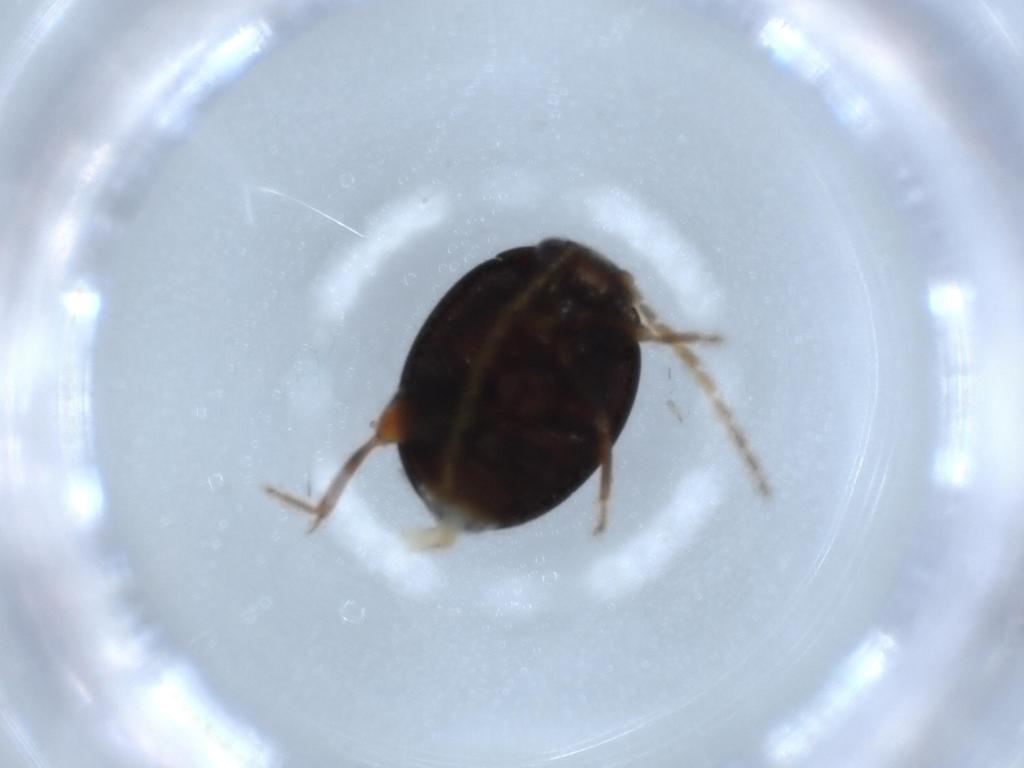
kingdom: Animalia
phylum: Arthropoda
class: Insecta
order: Coleoptera
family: Scirtidae
